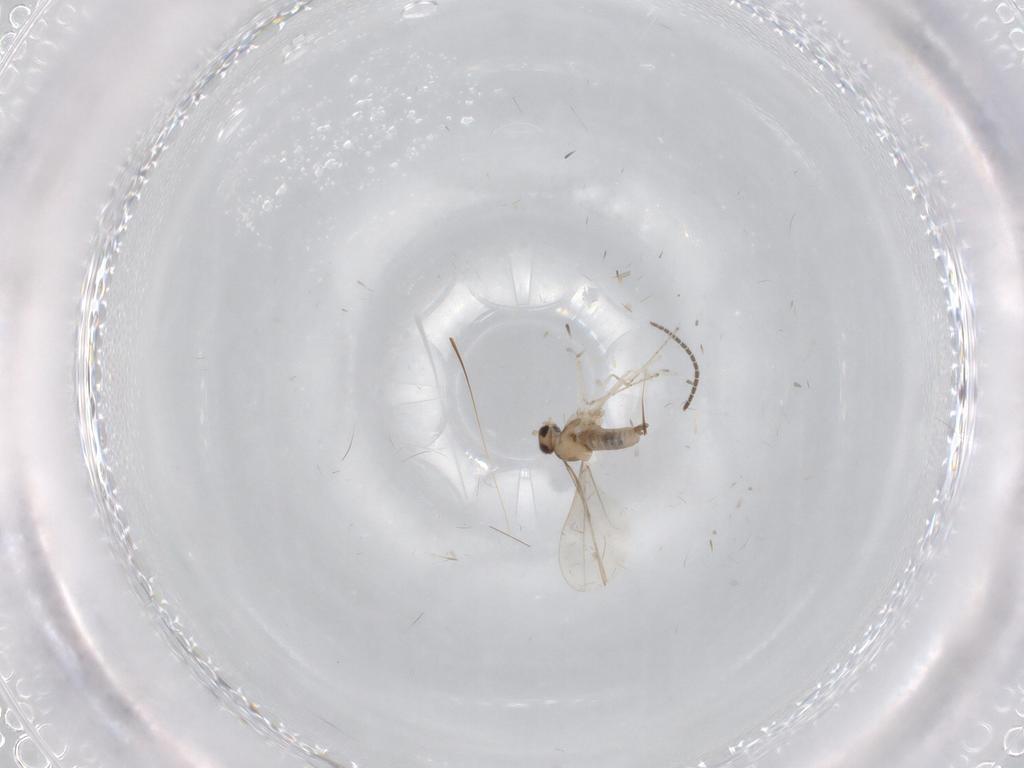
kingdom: Animalia
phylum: Arthropoda
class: Insecta
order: Diptera
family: Cecidomyiidae
